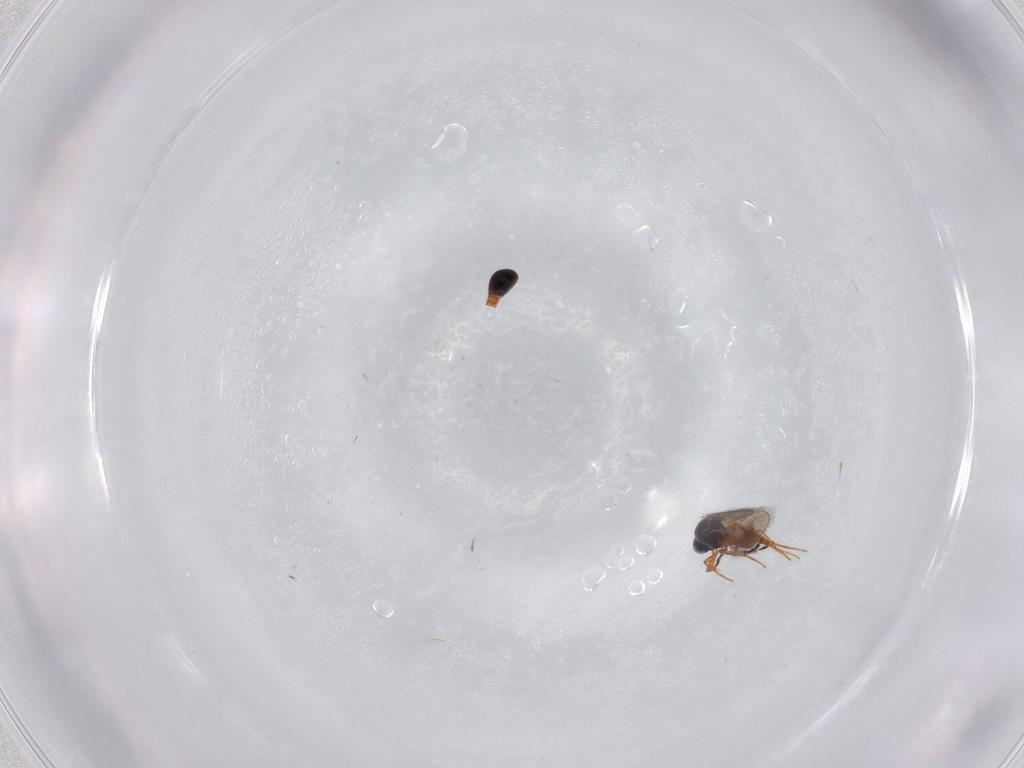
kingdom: Animalia
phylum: Arthropoda
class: Insecta
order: Hymenoptera
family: Platygastridae
